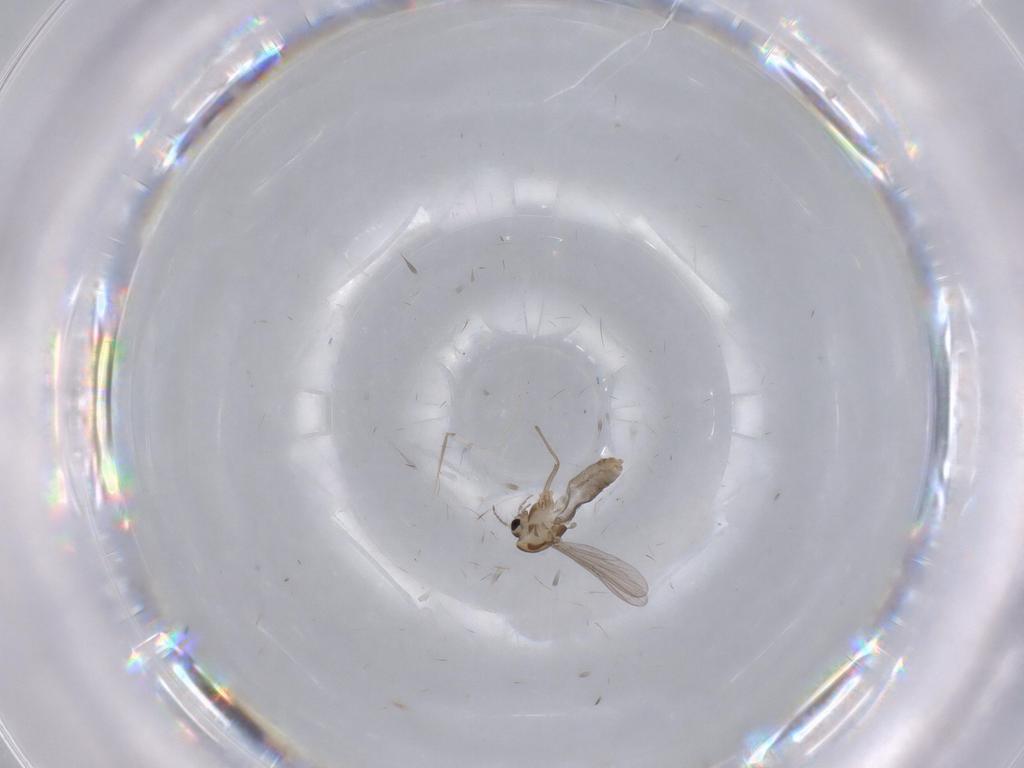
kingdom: Animalia
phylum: Arthropoda
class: Insecta
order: Diptera
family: Chironomidae
